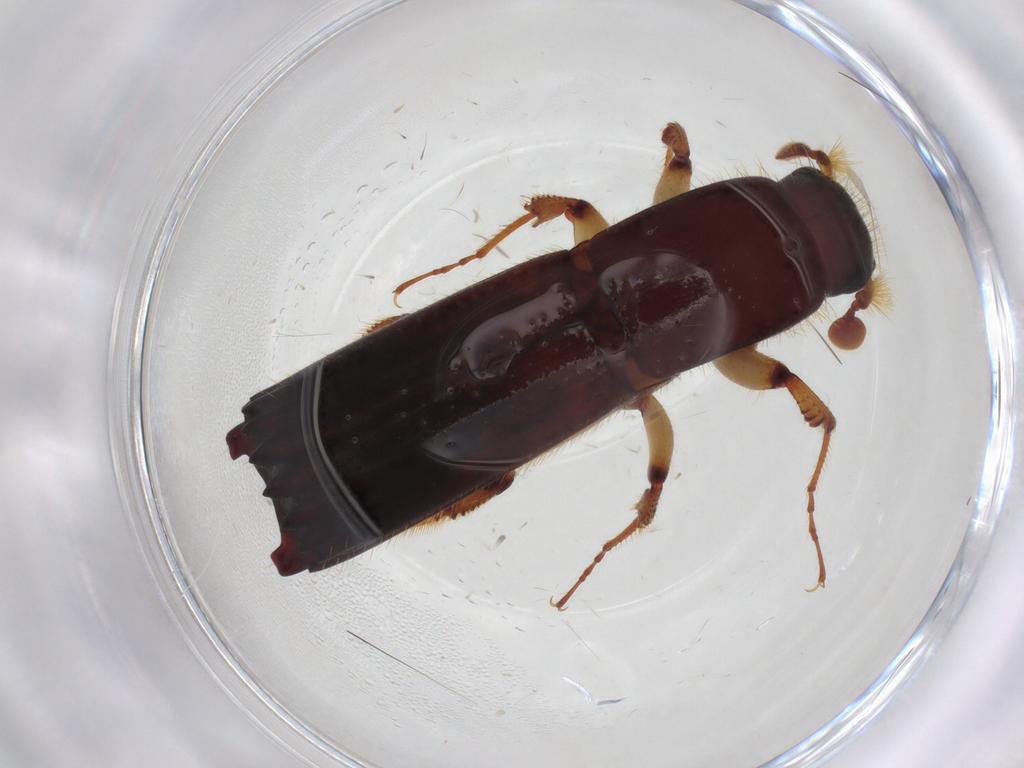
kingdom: Animalia
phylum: Arthropoda
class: Insecta
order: Coleoptera
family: Curculionidae
